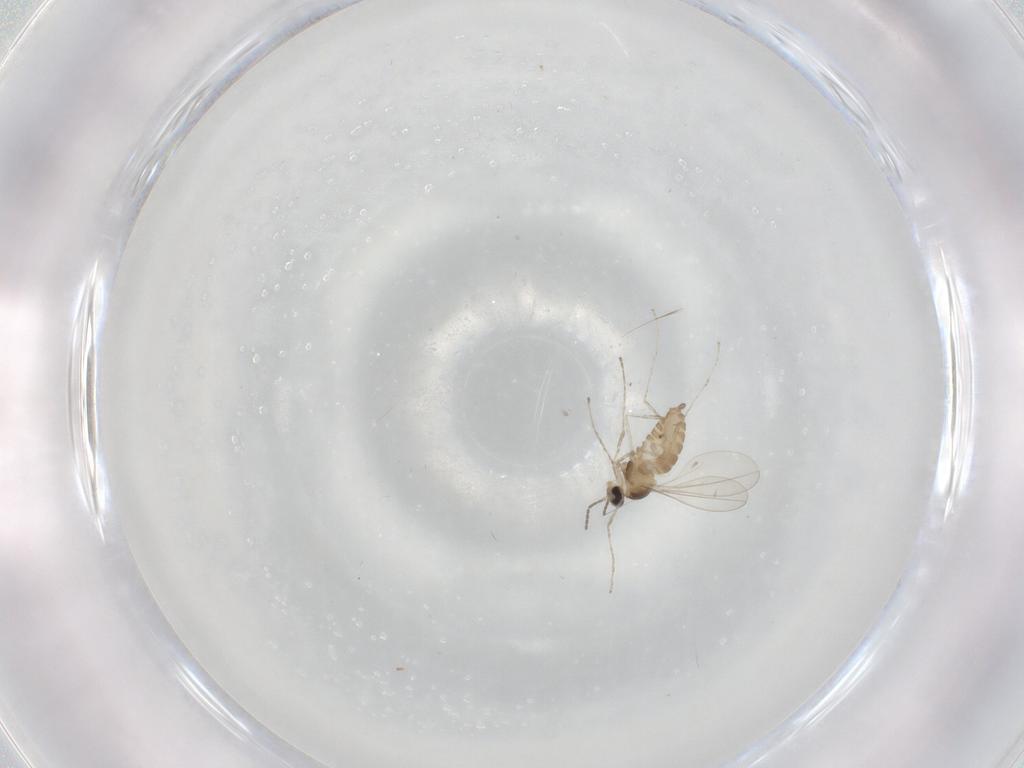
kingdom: Animalia
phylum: Arthropoda
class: Insecta
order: Diptera
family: Cecidomyiidae
